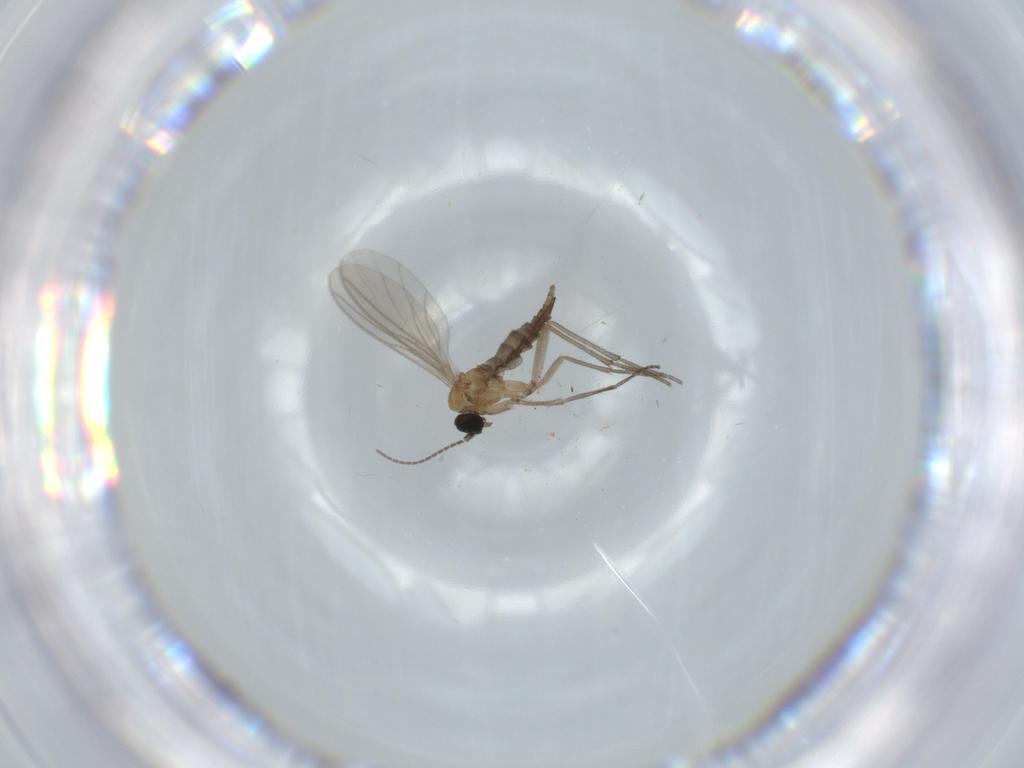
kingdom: Animalia
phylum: Arthropoda
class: Insecta
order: Diptera
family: Sciaridae
